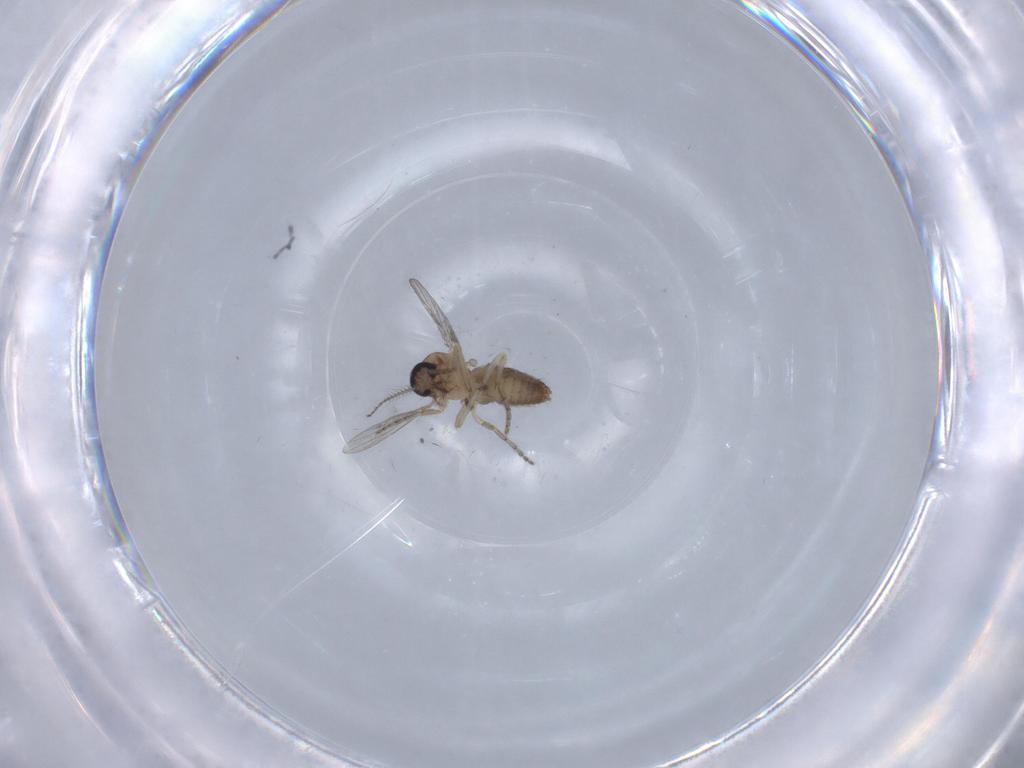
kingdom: Animalia
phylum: Arthropoda
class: Insecta
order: Diptera
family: Ceratopogonidae
